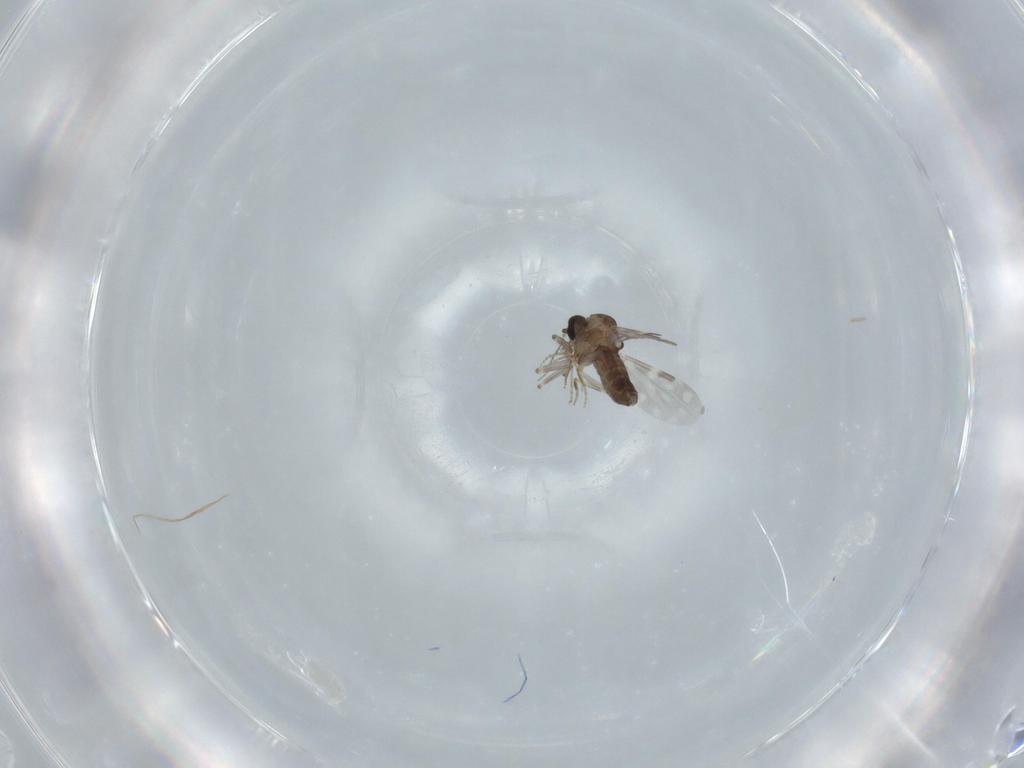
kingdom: Animalia
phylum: Arthropoda
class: Insecta
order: Diptera
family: Ceratopogonidae
